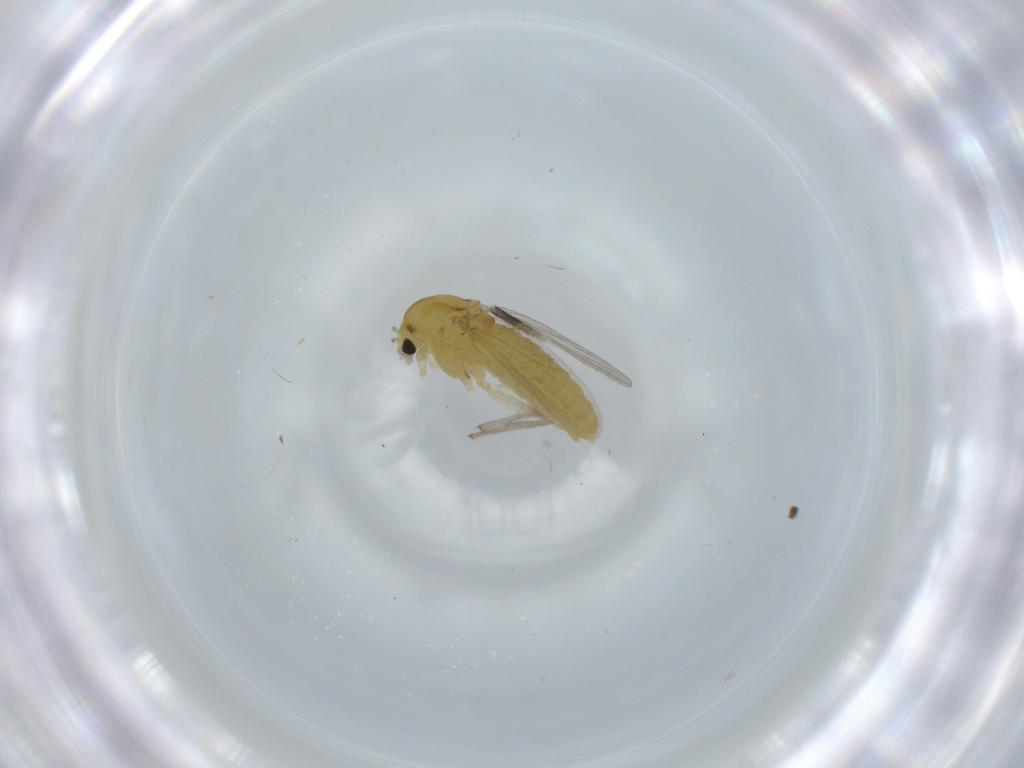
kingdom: Animalia
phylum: Arthropoda
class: Insecta
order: Diptera
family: Chironomidae
